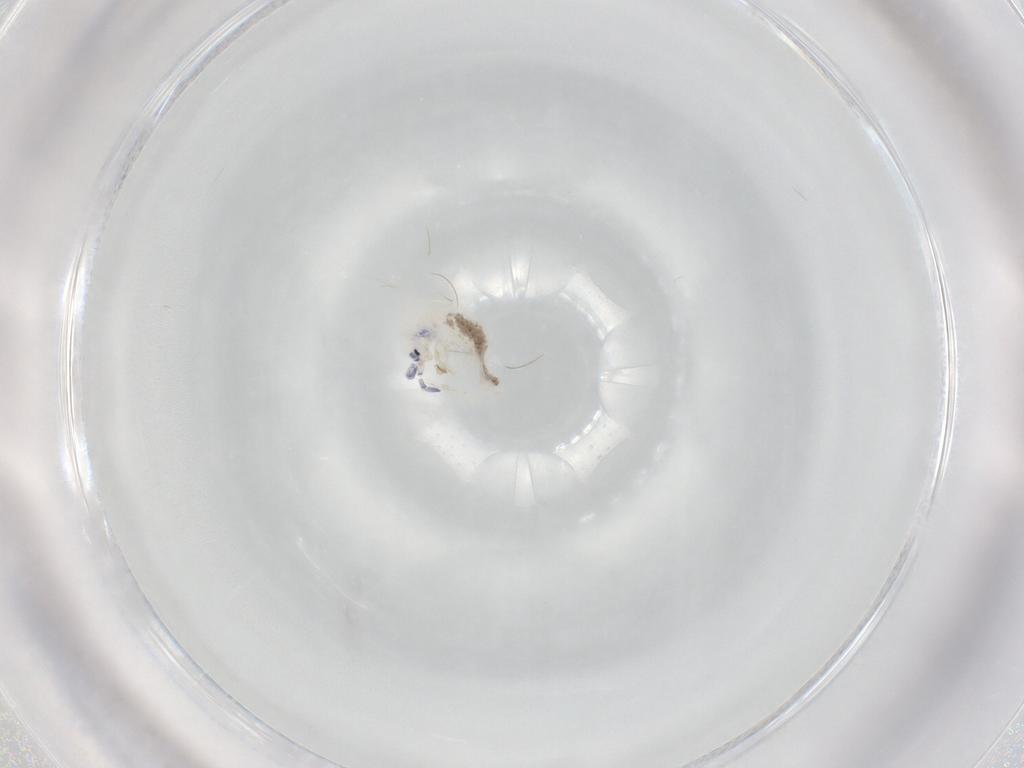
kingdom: Animalia
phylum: Arthropoda
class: Collembola
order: Entomobryomorpha
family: Entomobryidae
